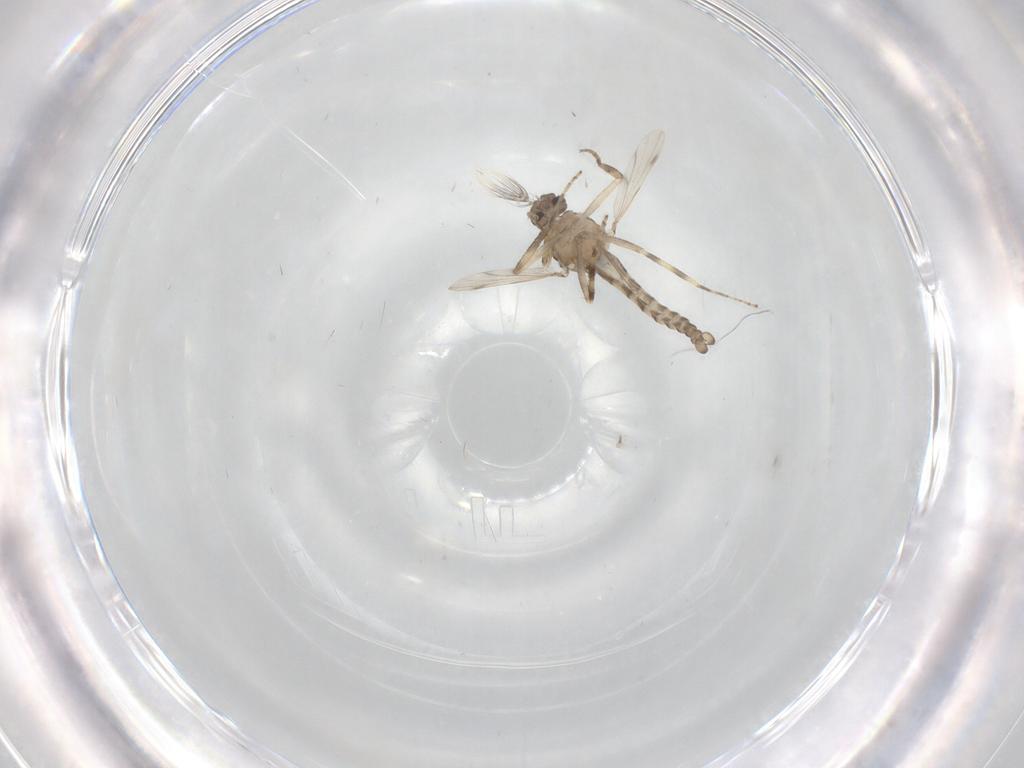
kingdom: Animalia
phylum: Arthropoda
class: Insecta
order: Diptera
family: Ceratopogonidae
